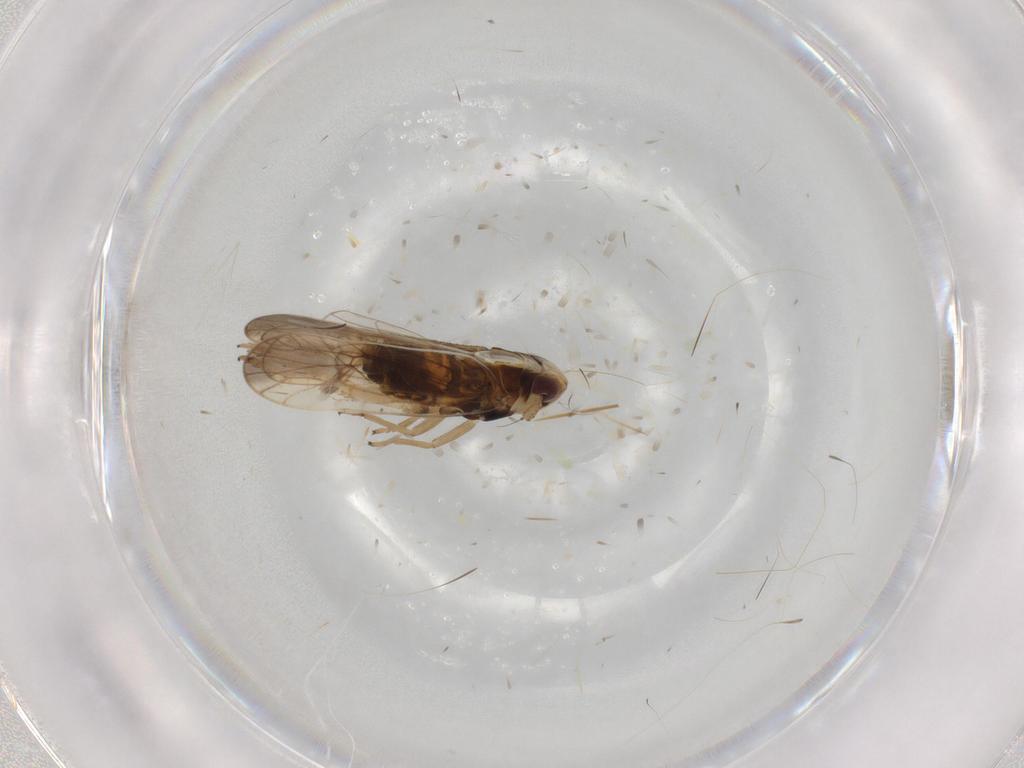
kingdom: Animalia
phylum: Arthropoda
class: Insecta
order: Hemiptera
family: Delphacidae
